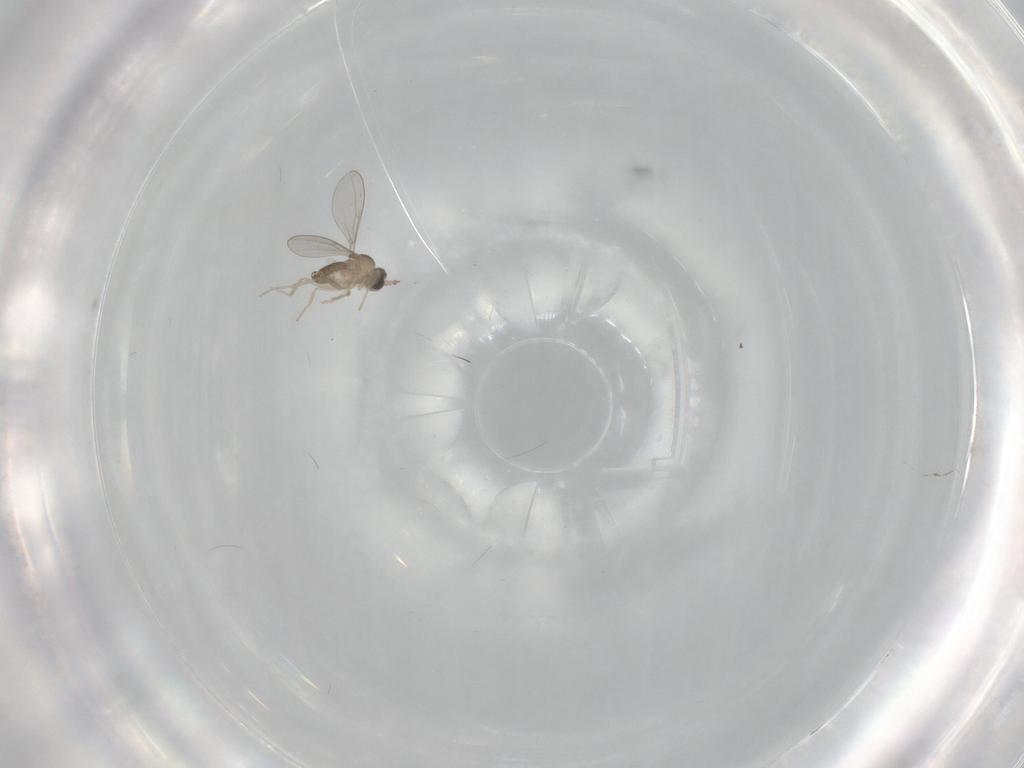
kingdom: Animalia
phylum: Arthropoda
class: Insecta
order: Diptera
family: Cecidomyiidae
